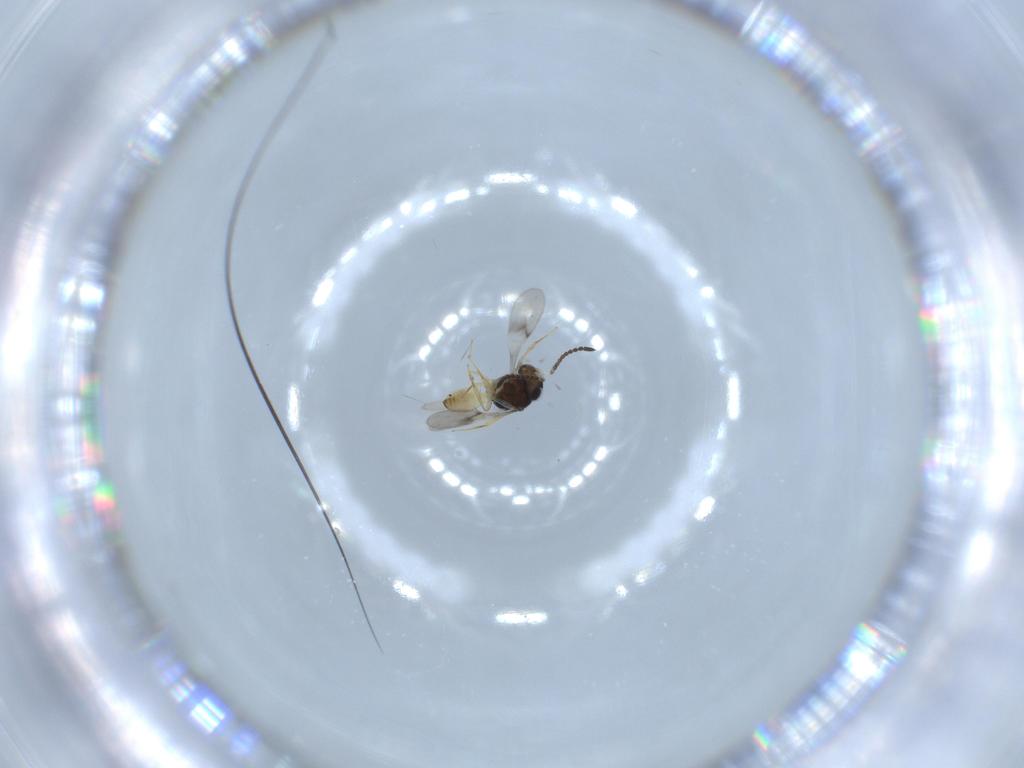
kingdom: Animalia
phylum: Arthropoda
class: Insecta
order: Hymenoptera
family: Scelionidae
